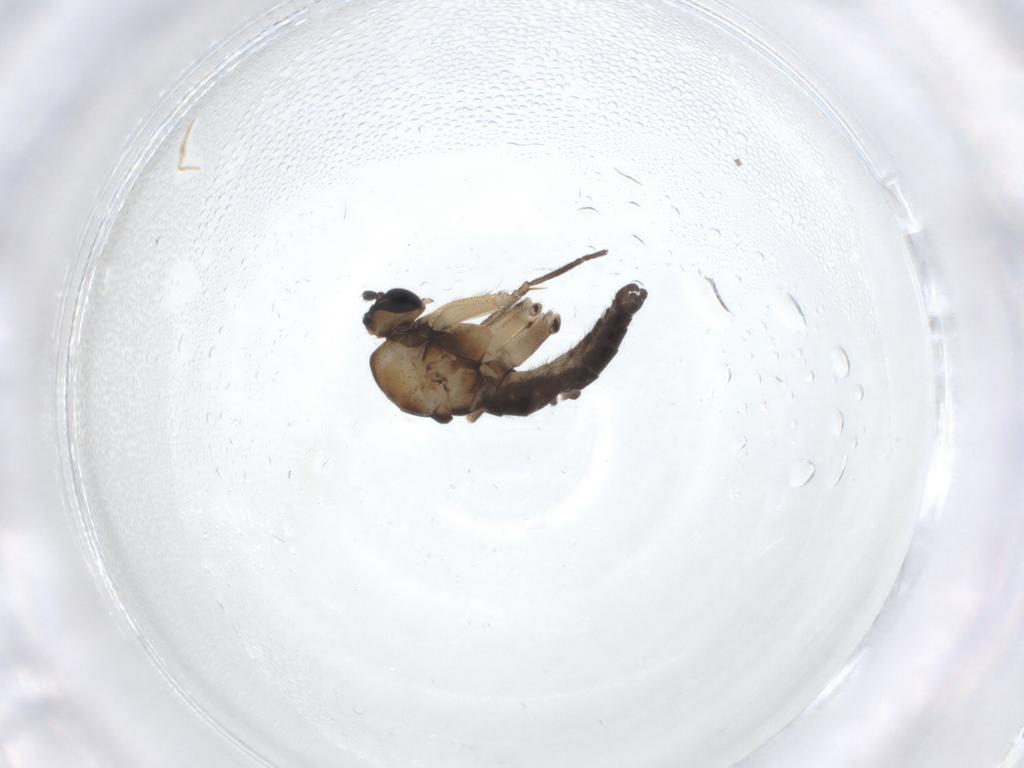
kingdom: Animalia
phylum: Arthropoda
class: Insecta
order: Diptera
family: Sciaridae
